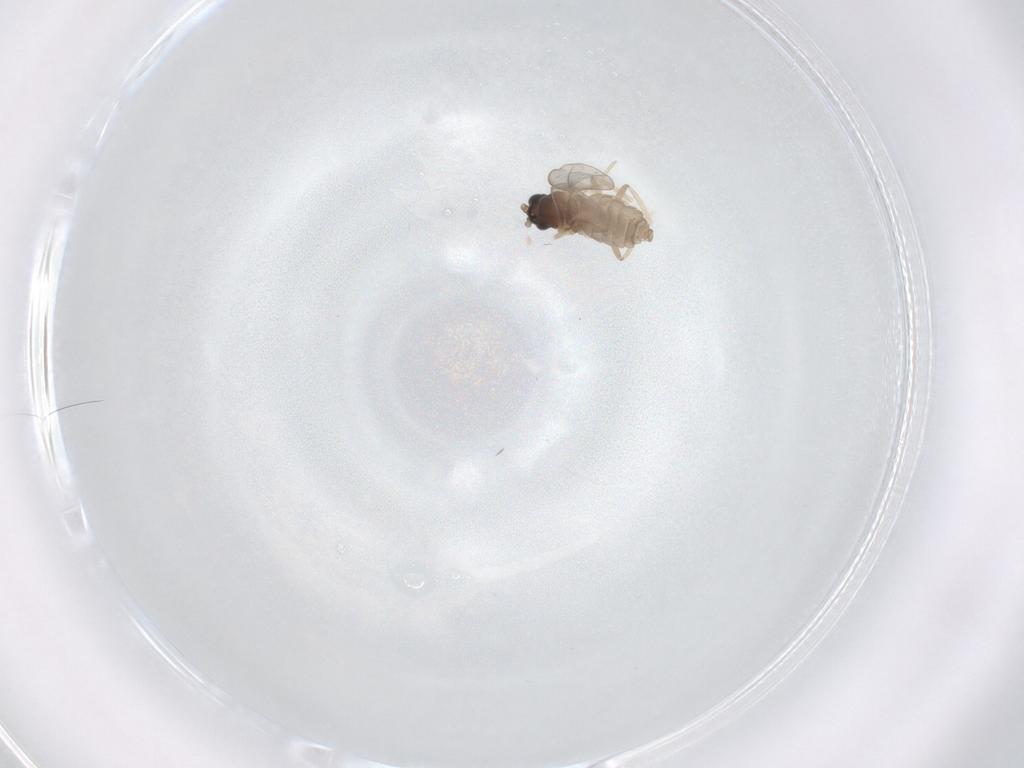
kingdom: Animalia
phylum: Arthropoda
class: Insecta
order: Diptera
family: Cecidomyiidae
